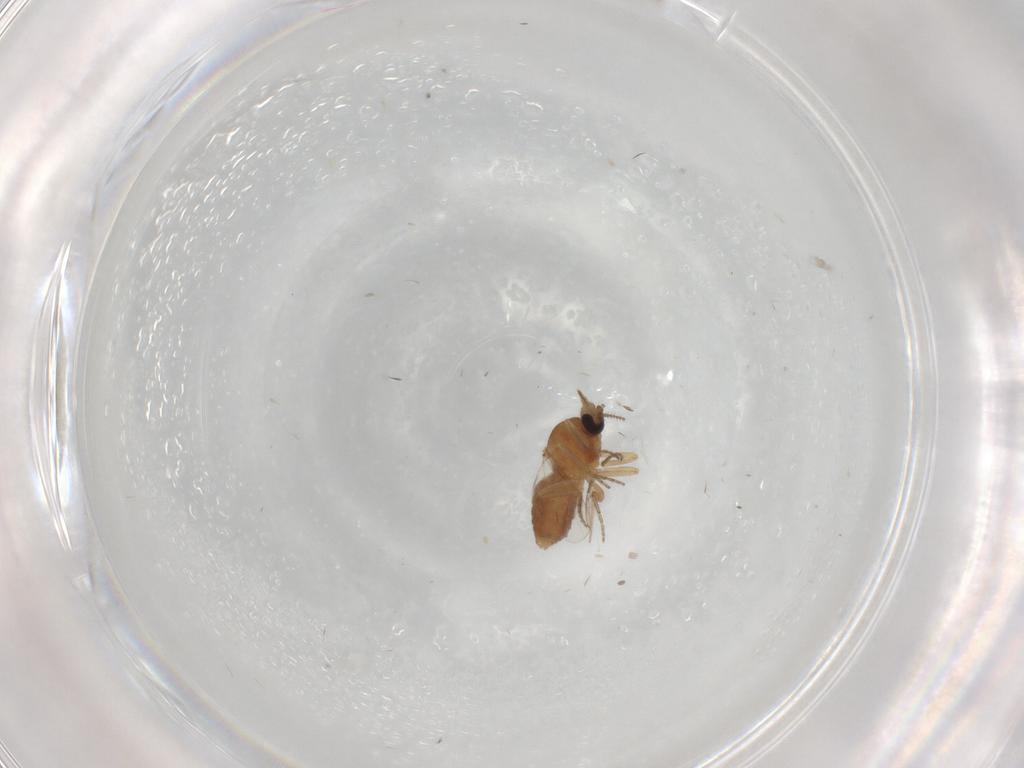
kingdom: Animalia
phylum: Arthropoda
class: Insecta
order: Diptera
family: Ceratopogonidae
